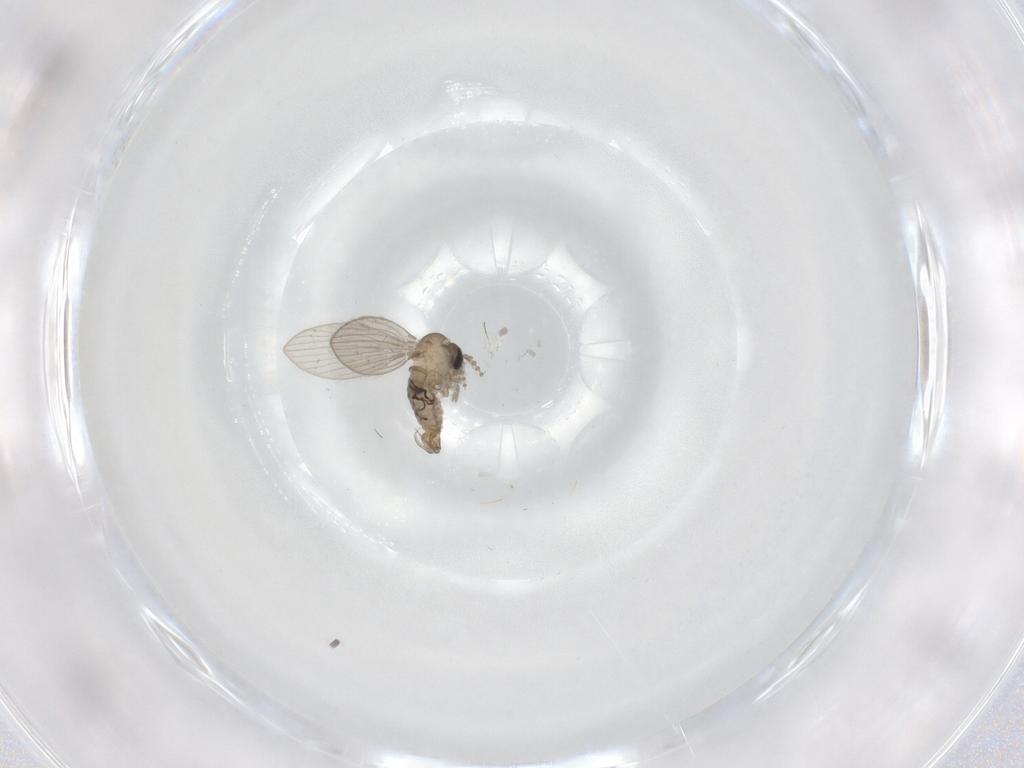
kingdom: Animalia
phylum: Arthropoda
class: Insecta
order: Diptera
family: Psychodidae
